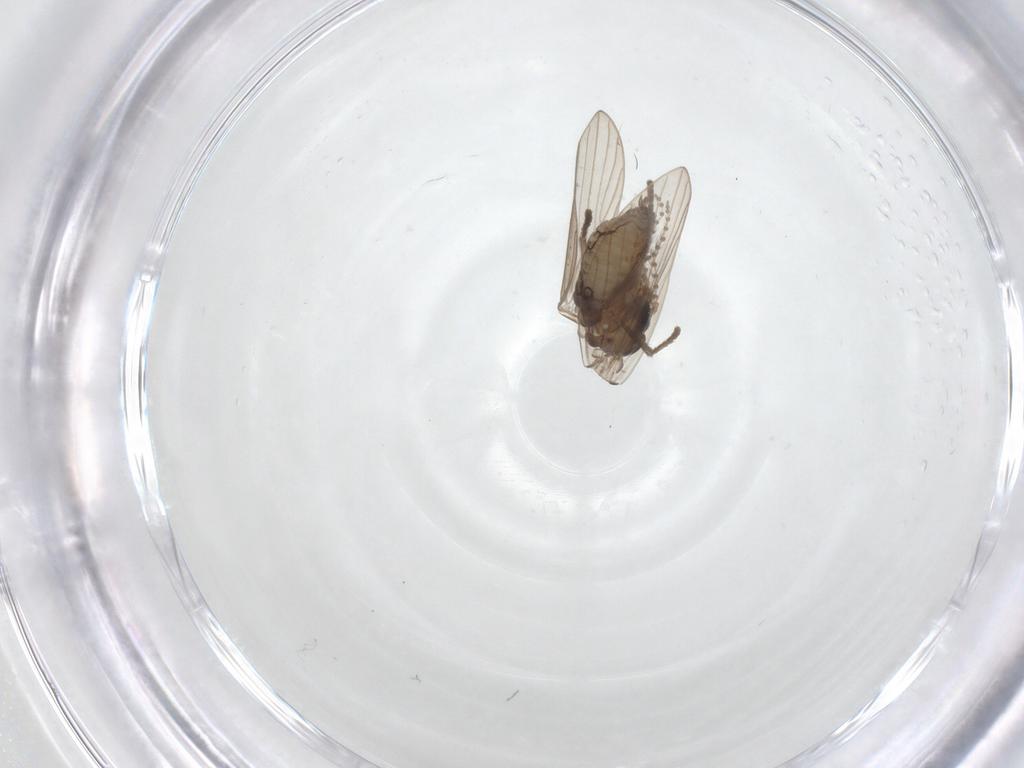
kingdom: Animalia
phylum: Arthropoda
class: Insecta
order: Diptera
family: Psychodidae
